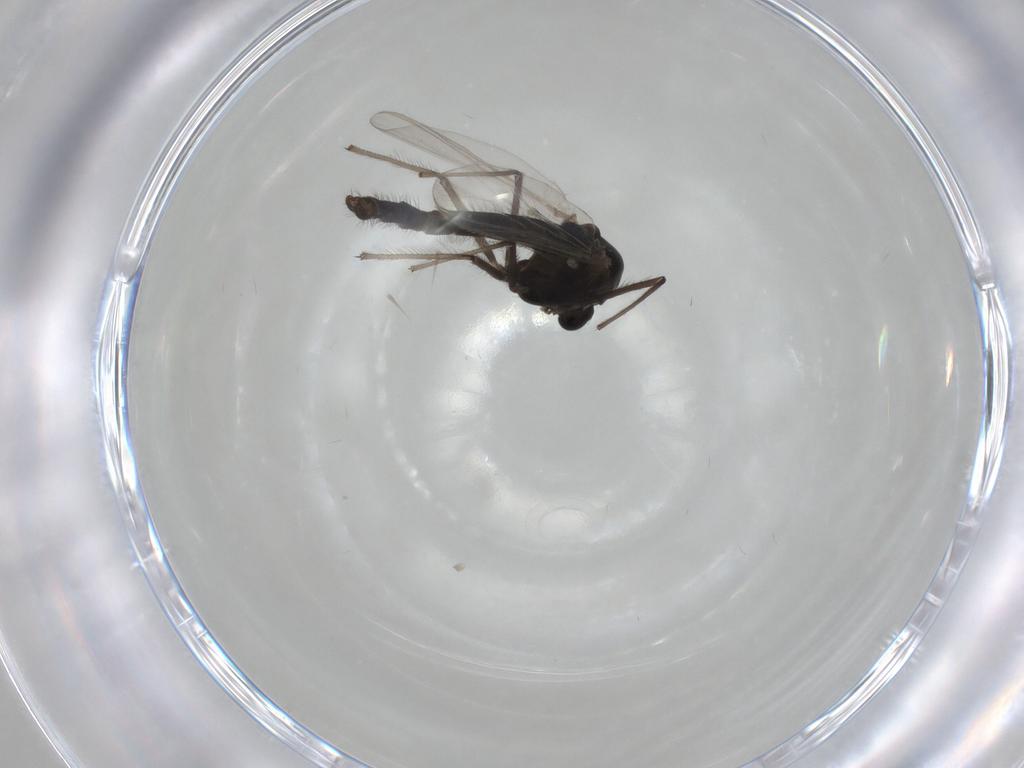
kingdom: Animalia
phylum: Arthropoda
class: Insecta
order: Diptera
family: Chironomidae
